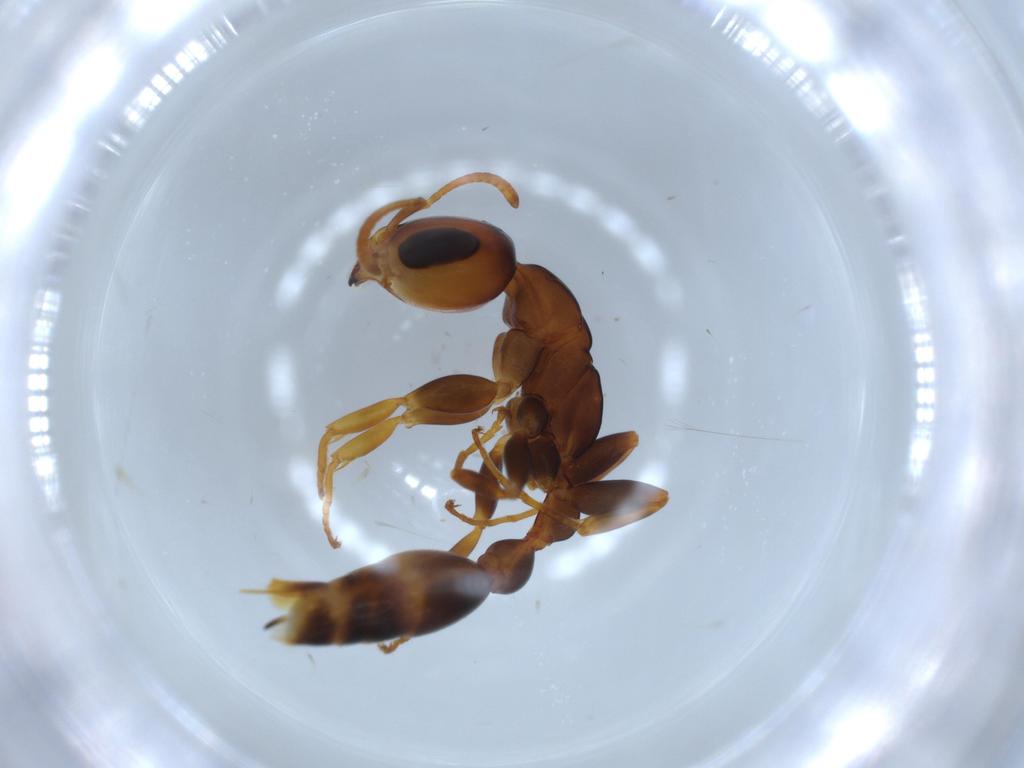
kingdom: Animalia
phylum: Arthropoda
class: Insecta
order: Hymenoptera
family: Formicidae
